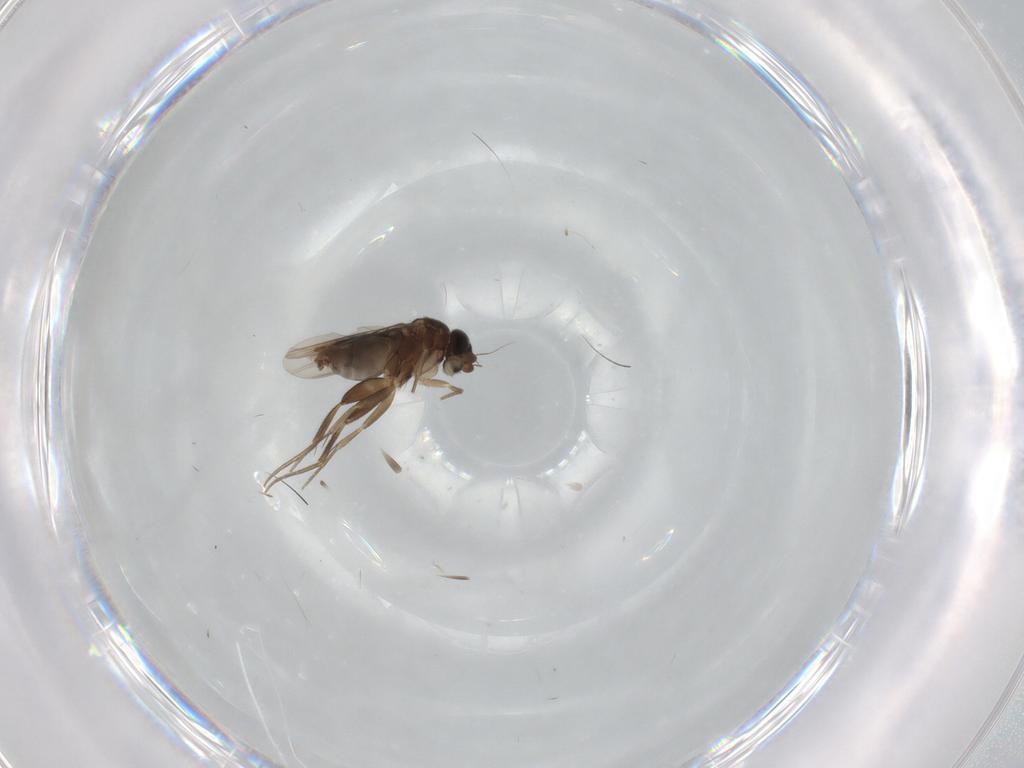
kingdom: Animalia
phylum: Arthropoda
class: Insecta
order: Diptera
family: Phoridae
